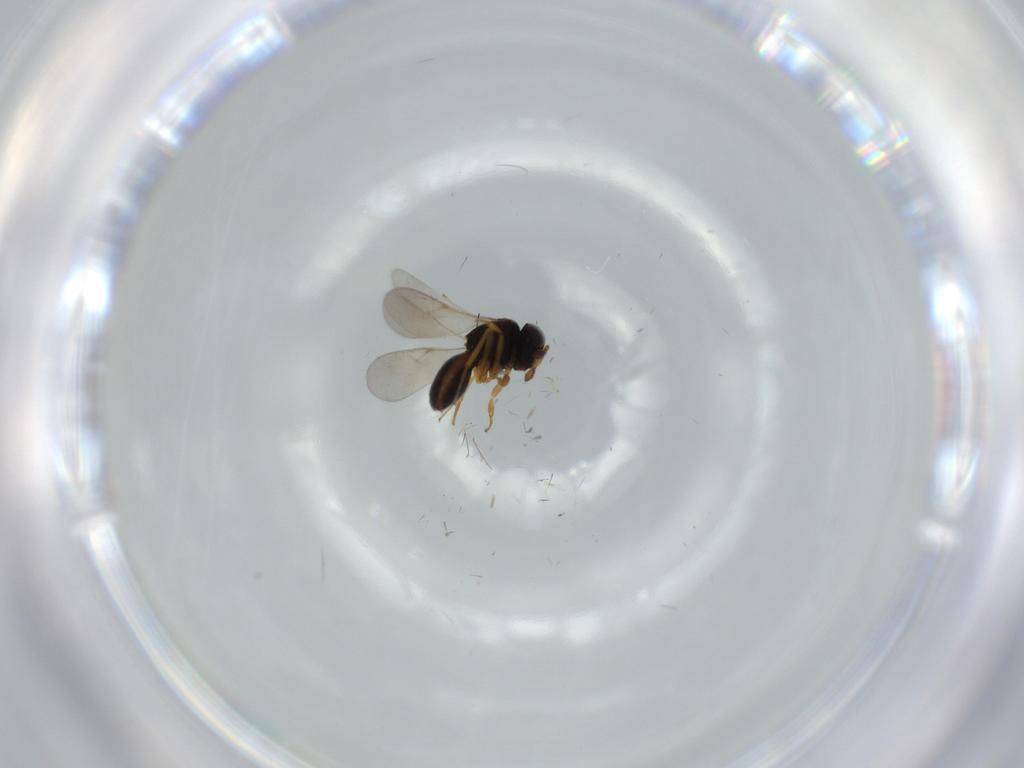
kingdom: Animalia
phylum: Arthropoda
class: Insecta
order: Hymenoptera
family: Scelionidae
